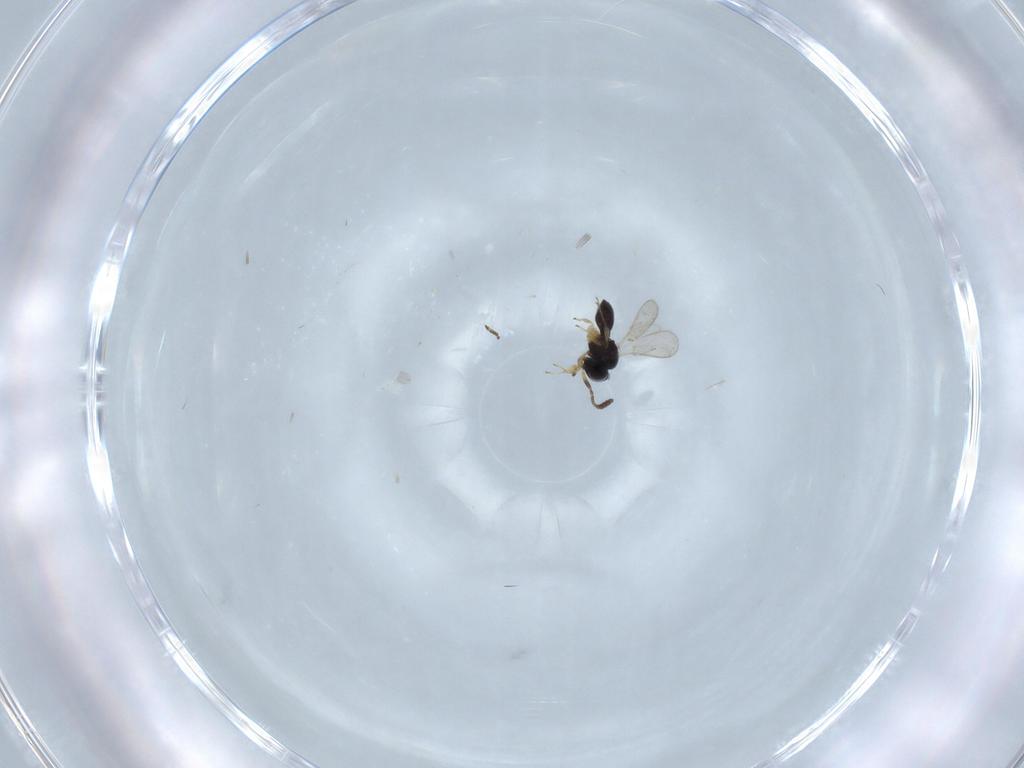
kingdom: Animalia
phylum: Arthropoda
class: Insecta
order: Hymenoptera
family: Scelionidae
